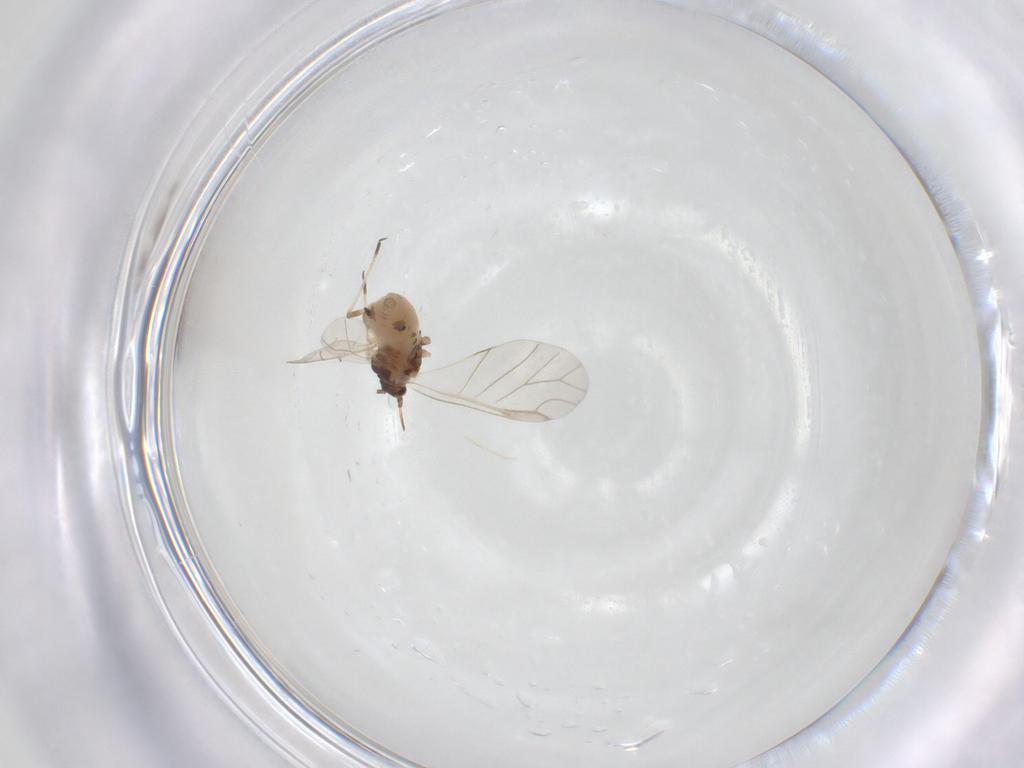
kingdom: Animalia
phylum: Arthropoda
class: Insecta
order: Hemiptera
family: Aphididae
